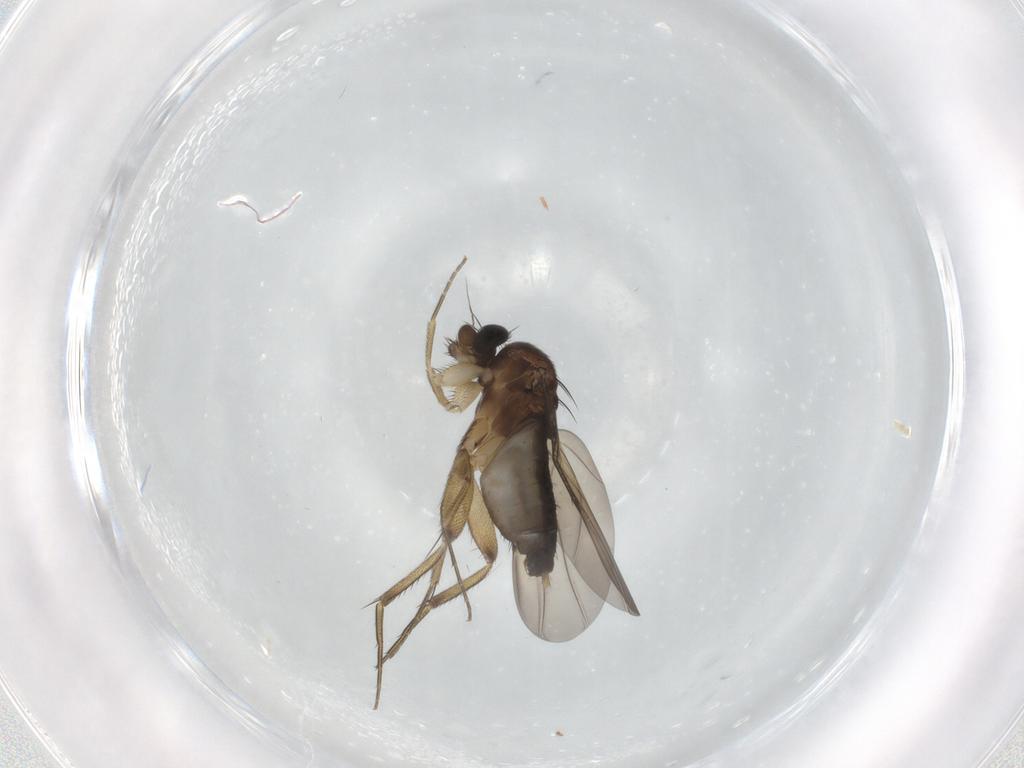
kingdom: Animalia
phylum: Arthropoda
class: Insecta
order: Diptera
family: Phoridae
